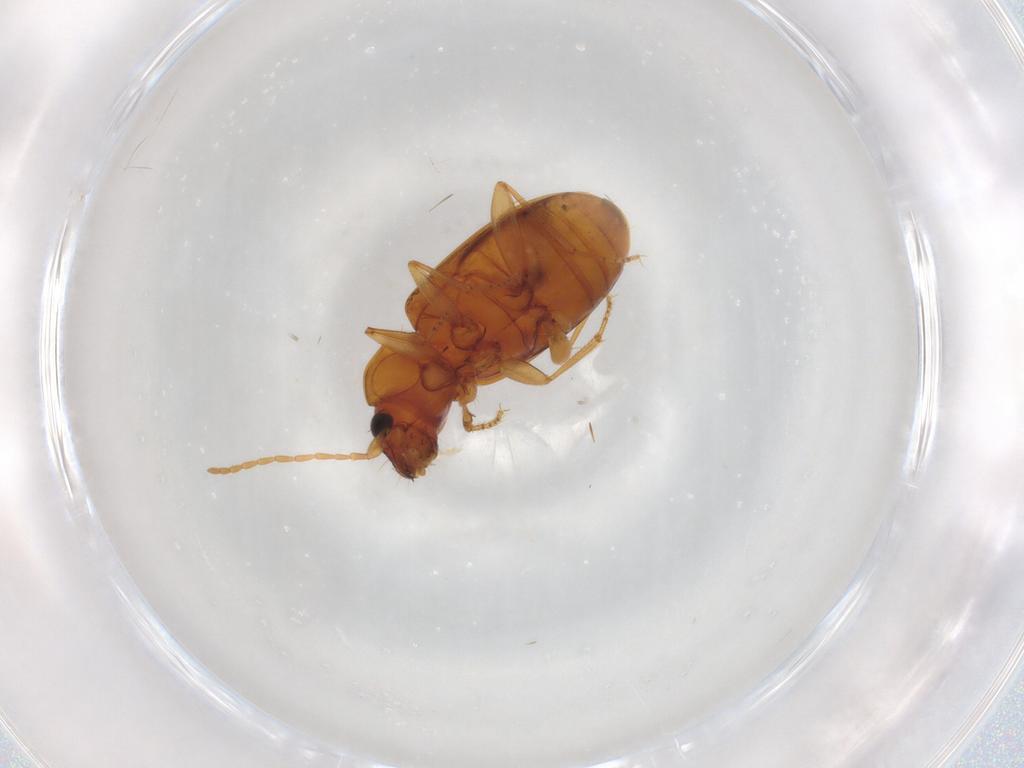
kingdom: Animalia
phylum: Arthropoda
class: Insecta
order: Coleoptera
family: Carabidae
